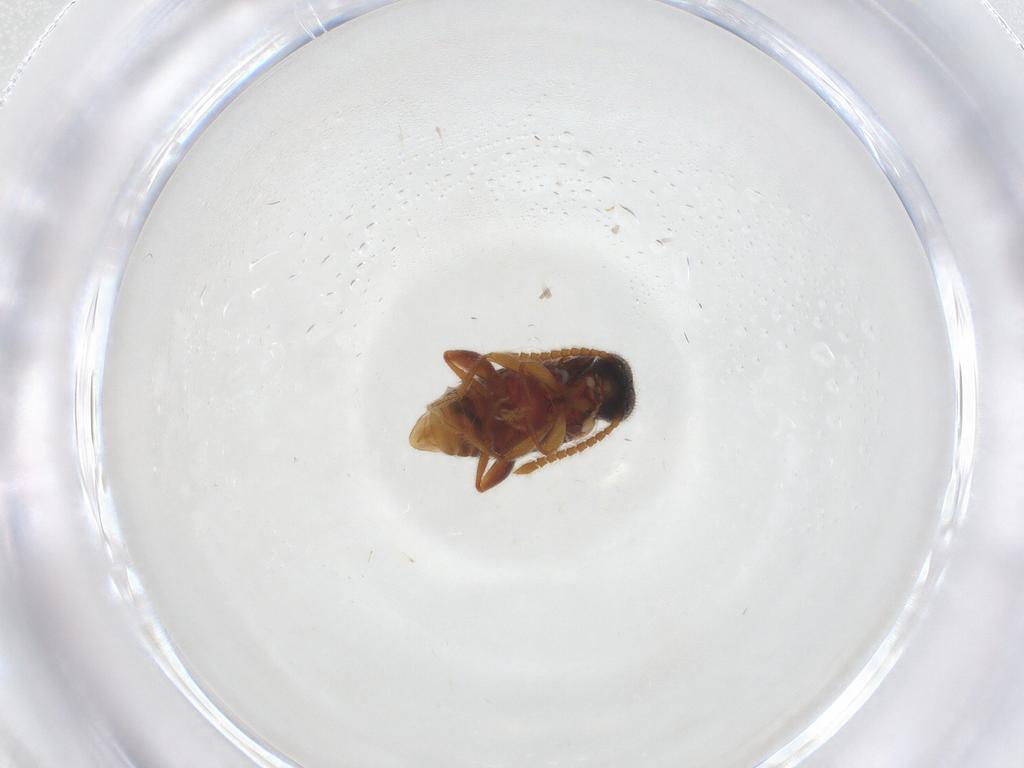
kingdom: Animalia
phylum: Arthropoda
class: Insecta
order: Coleoptera
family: Aderidae
